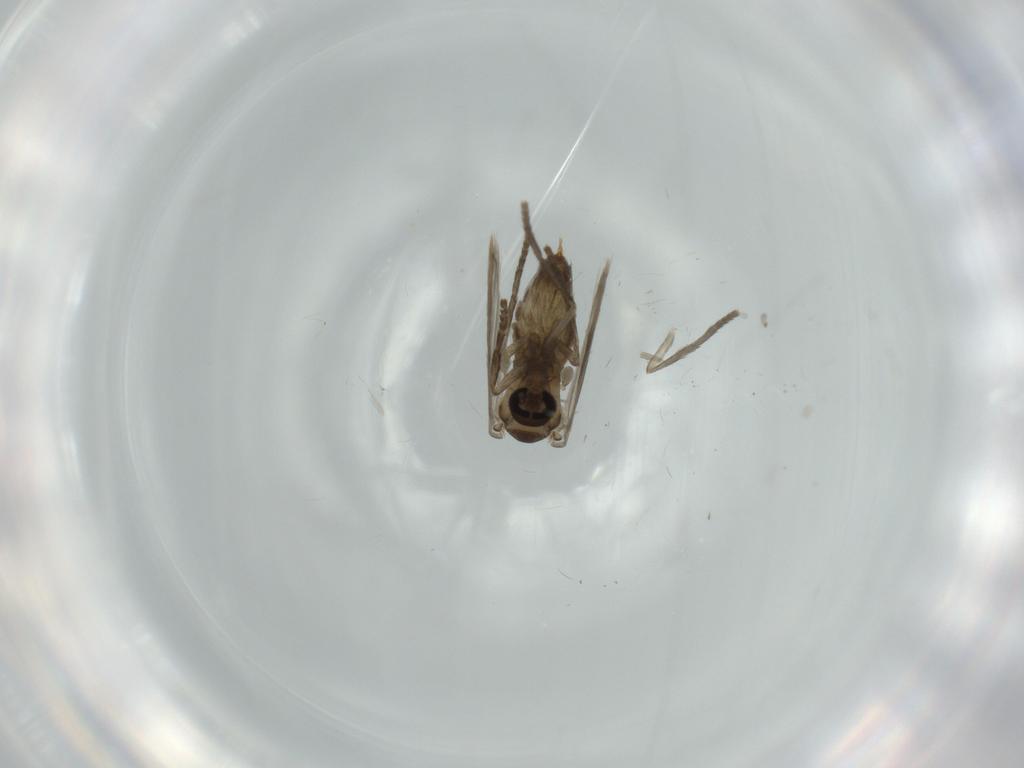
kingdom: Animalia
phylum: Arthropoda
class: Insecta
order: Diptera
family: Psychodidae
